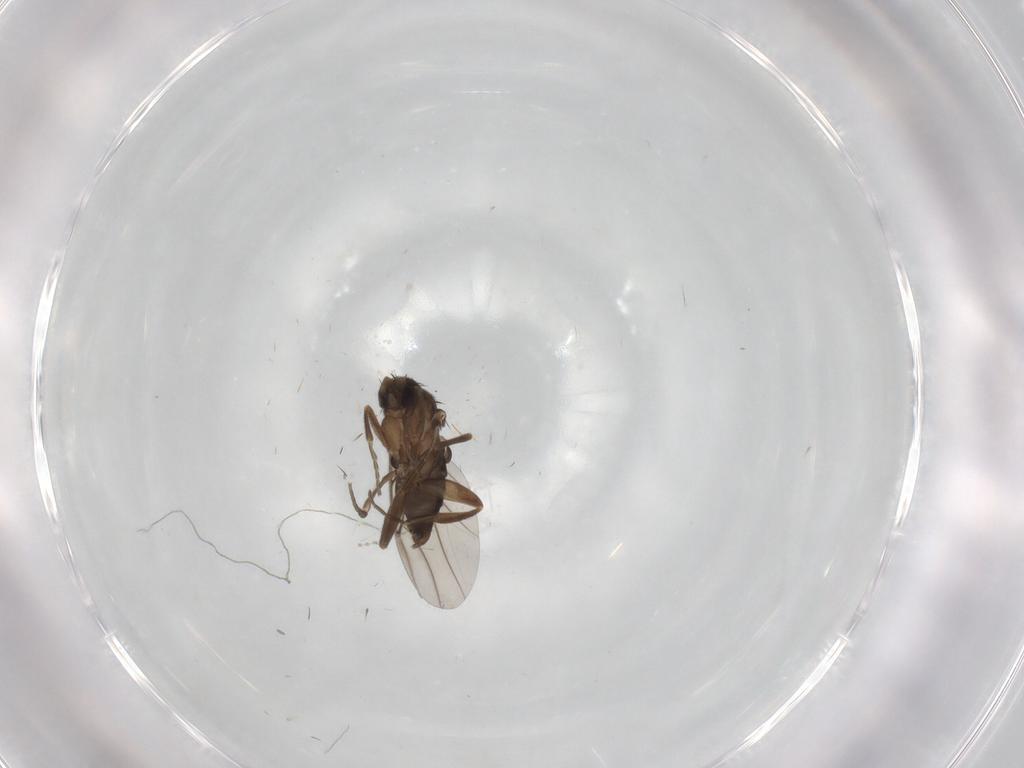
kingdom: Animalia
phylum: Arthropoda
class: Insecta
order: Diptera
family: Phoridae
